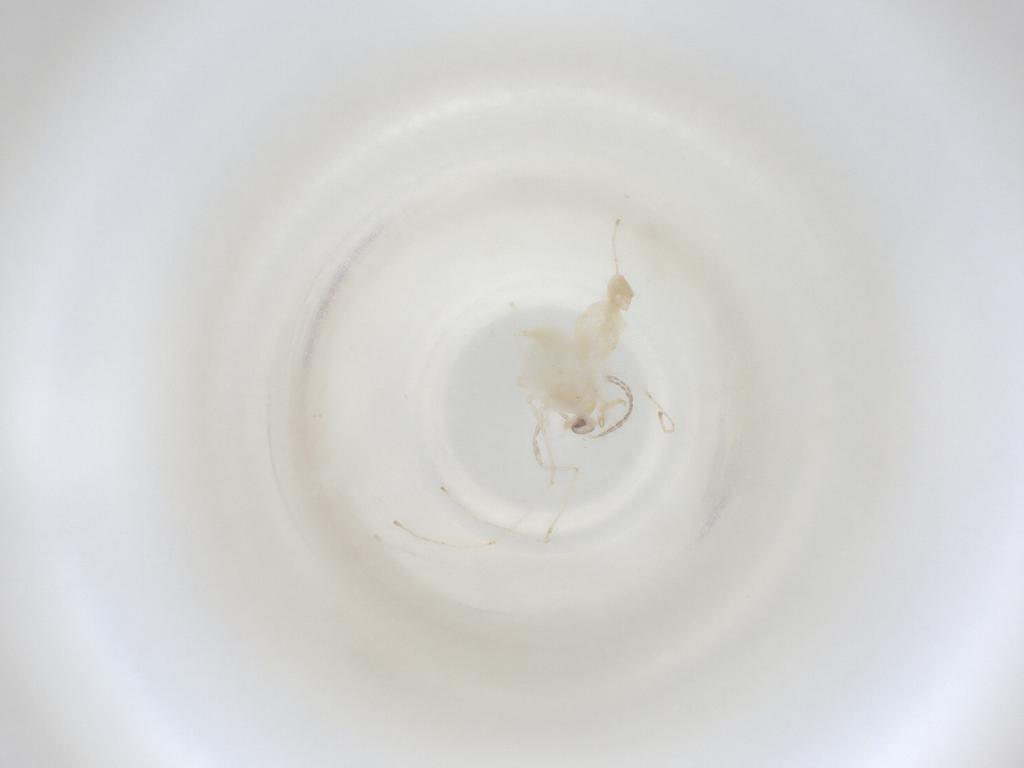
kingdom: Animalia
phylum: Arthropoda
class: Insecta
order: Diptera
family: Cecidomyiidae
